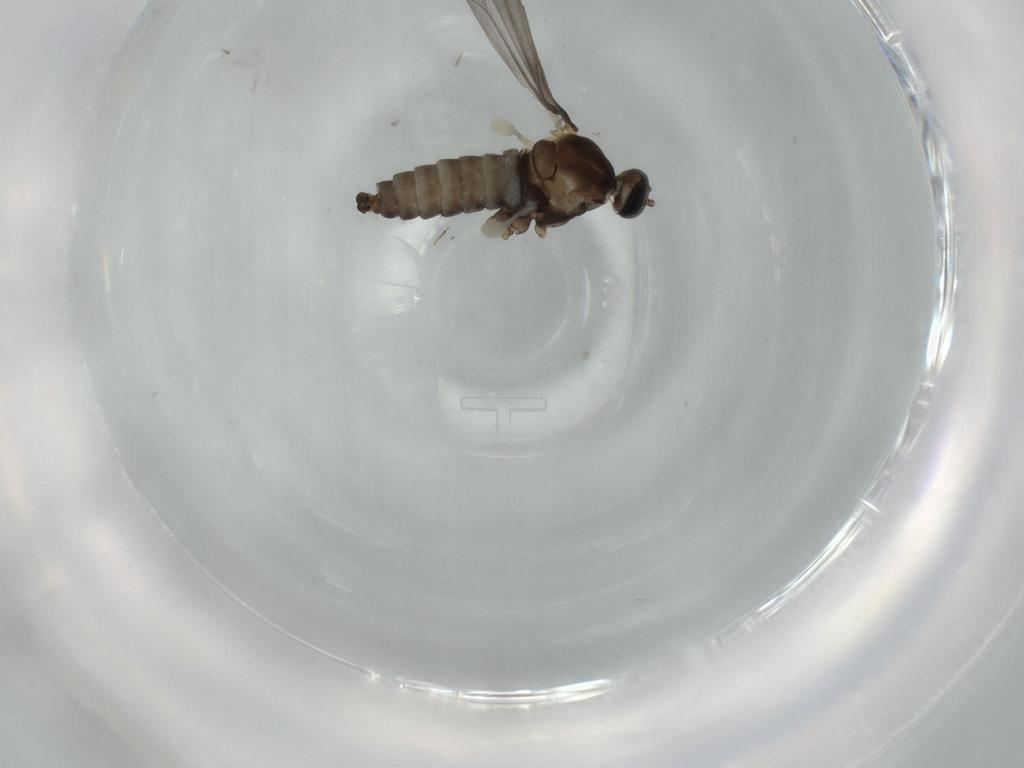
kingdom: Animalia
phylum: Arthropoda
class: Insecta
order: Diptera
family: Cecidomyiidae
